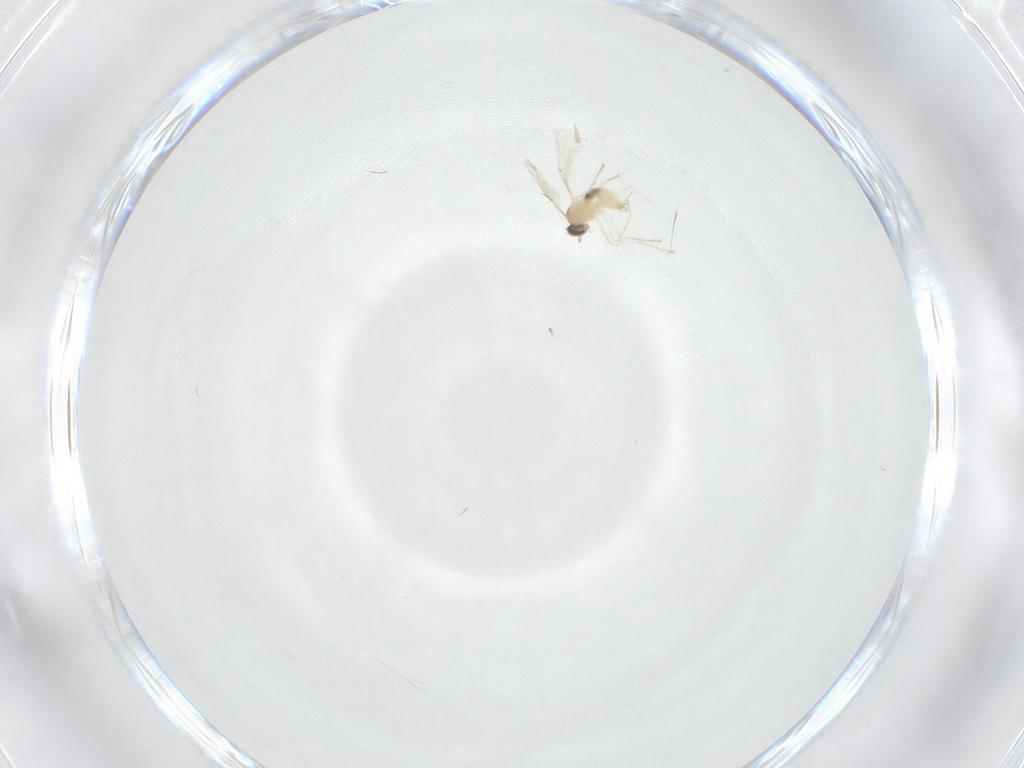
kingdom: Animalia
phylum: Arthropoda
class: Insecta
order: Diptera
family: Cecidomyiidae
